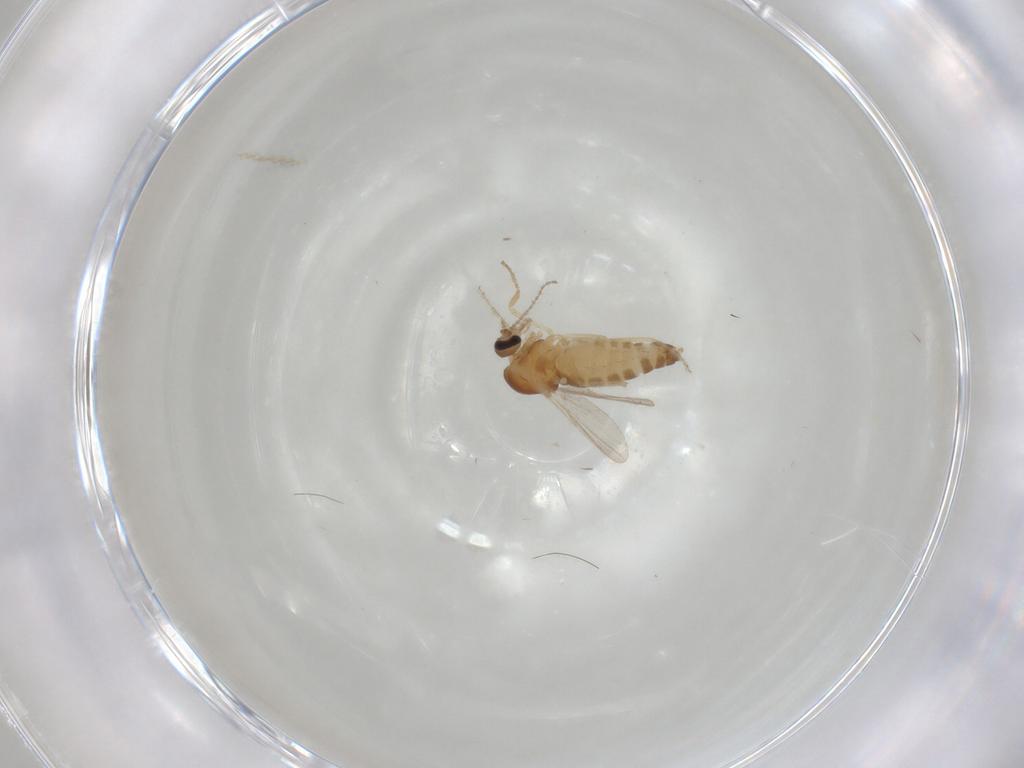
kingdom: Animalia
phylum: Arthropoda
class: Insecta
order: Diptera
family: Ceratopogonidae
